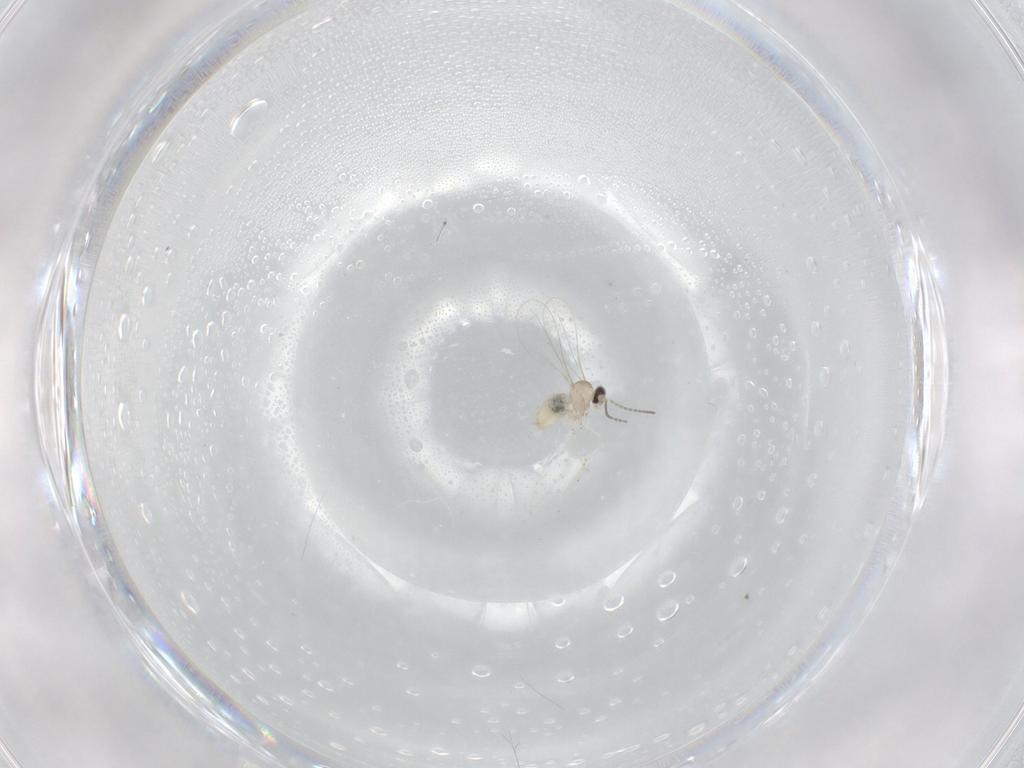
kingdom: Animalia
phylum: Arthropoda
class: Insecta
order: Diptera
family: Cecidomyiidae
